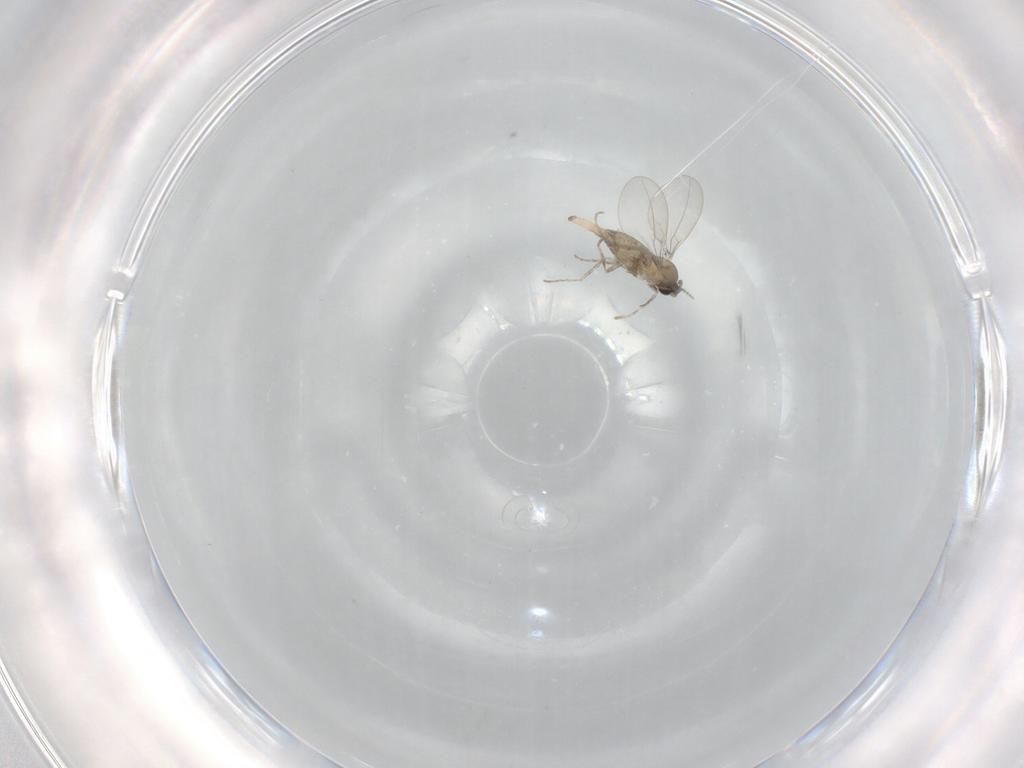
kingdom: Animalia
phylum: Arthropoda
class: Insecta
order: Diptera
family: Cecidomyiidae
